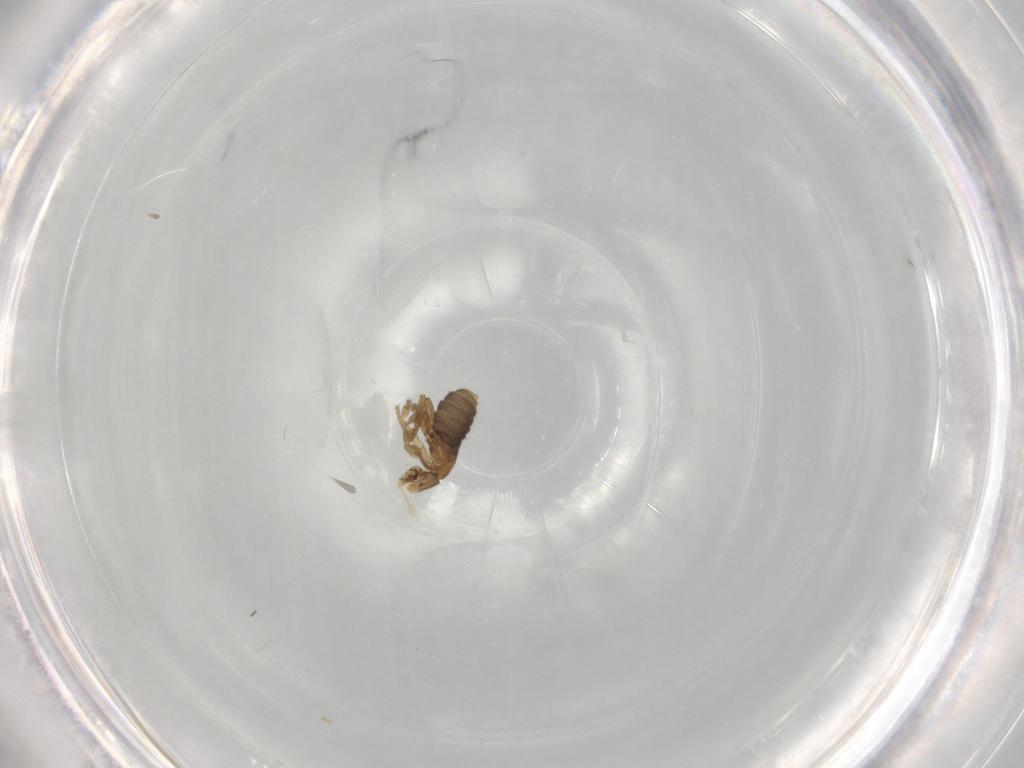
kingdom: Animalia
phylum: Arthropoda
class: Insecta
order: Diptera
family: Phoridae
